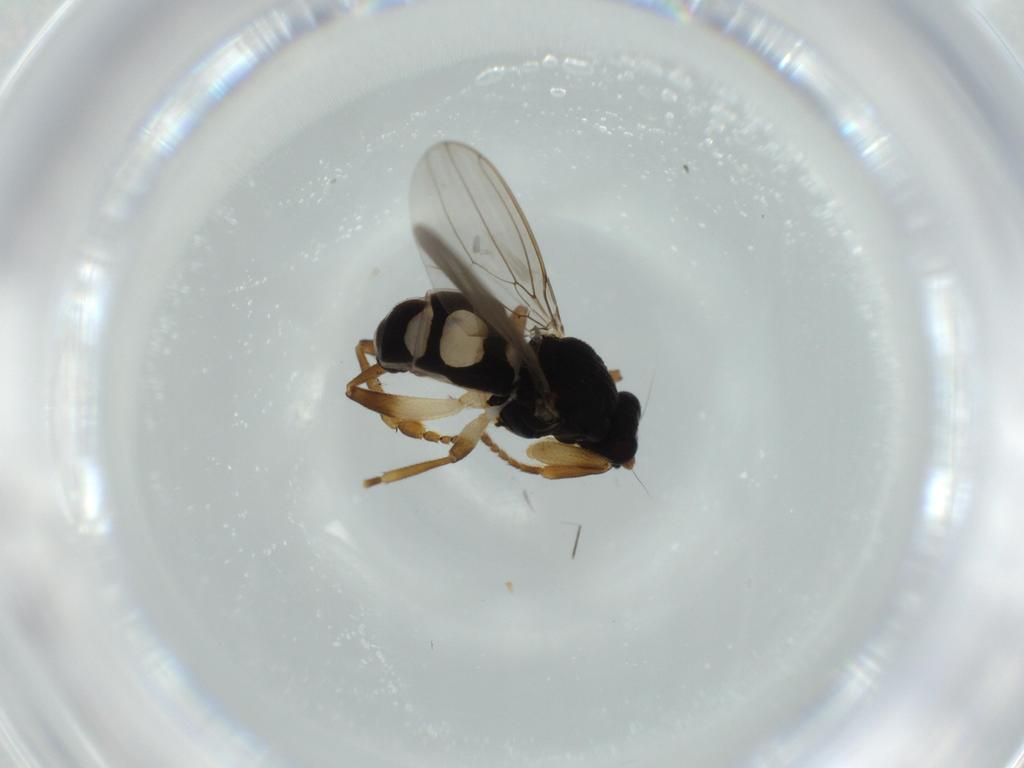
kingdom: Animalia
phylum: Arthropoda
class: Insecta
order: Diptera
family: Sphaeroceridae
